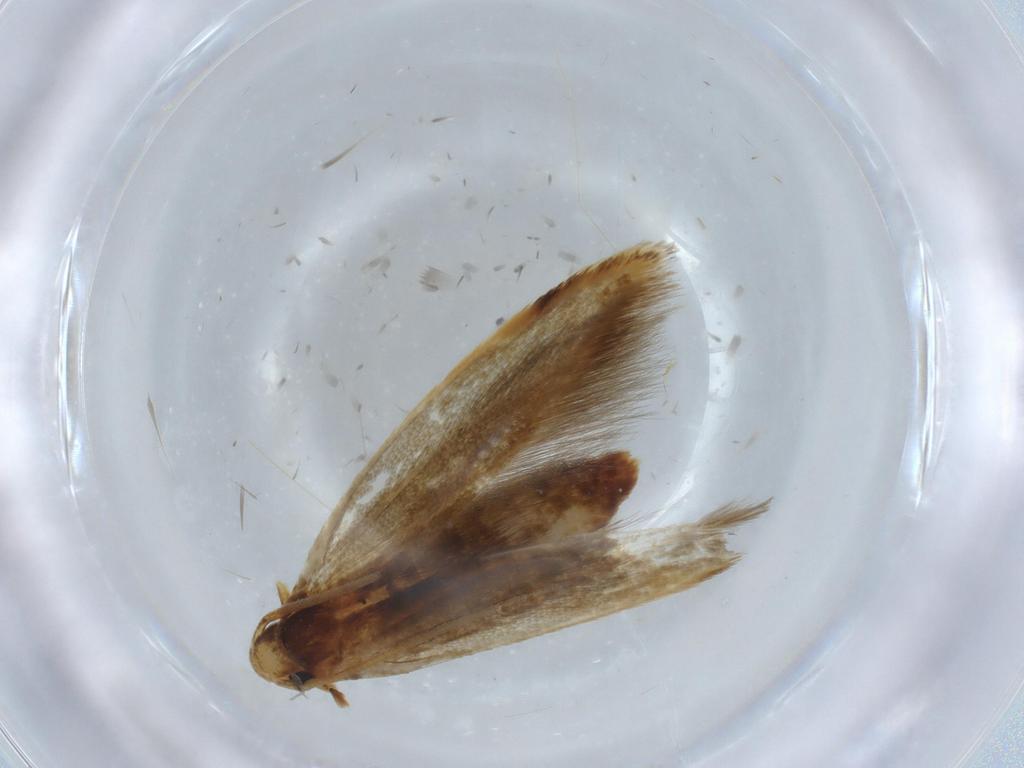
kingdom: Animalia
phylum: Arthropoda
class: Insecta
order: Lepidoptera
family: Tineidae
